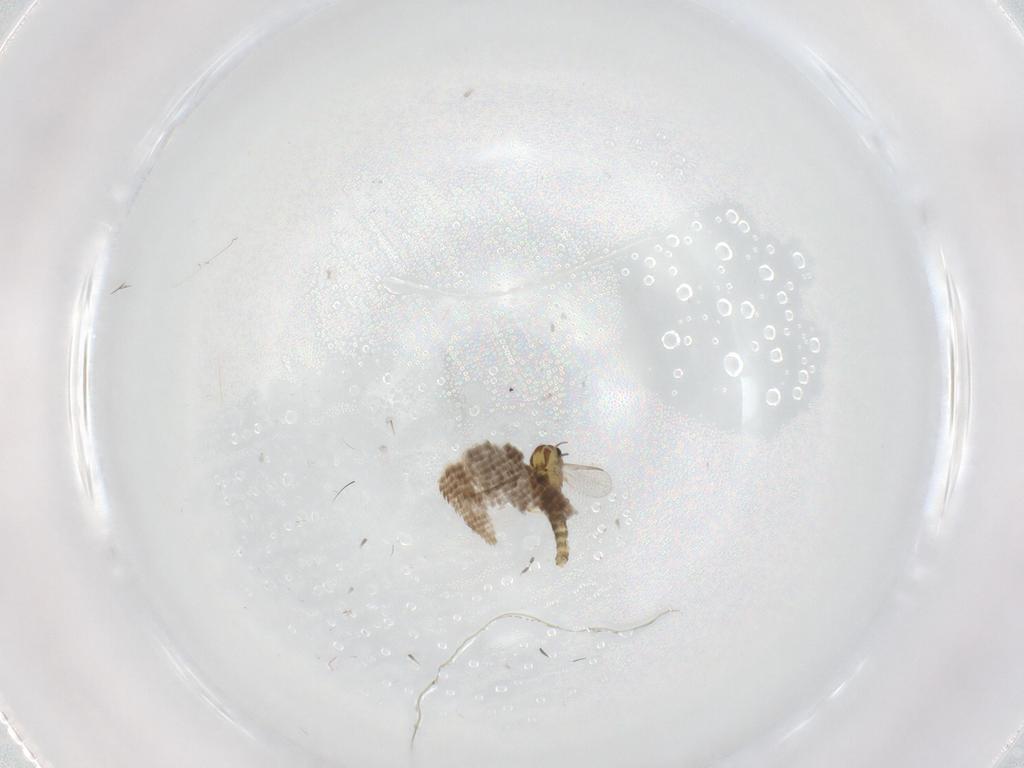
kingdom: Animalia
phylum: Arthropoda
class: Insecta
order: Diptera
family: Chironomidae
